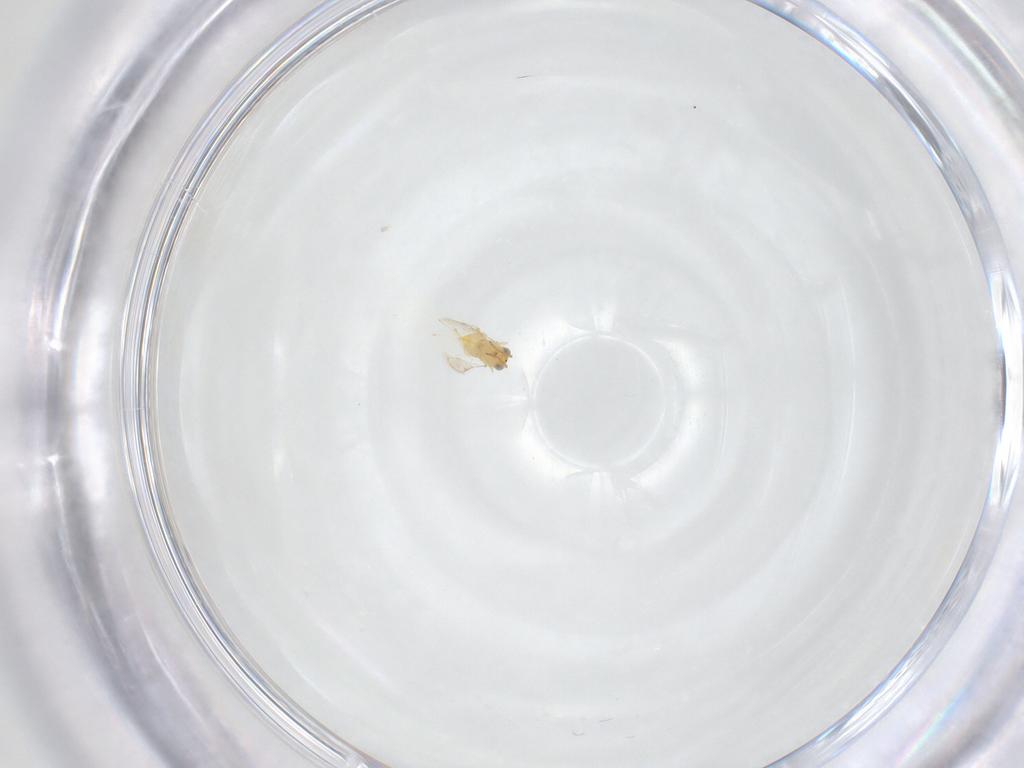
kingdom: Animalia
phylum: Arthropoda
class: Insecta
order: Hymenoptera
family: Aphelinidae
